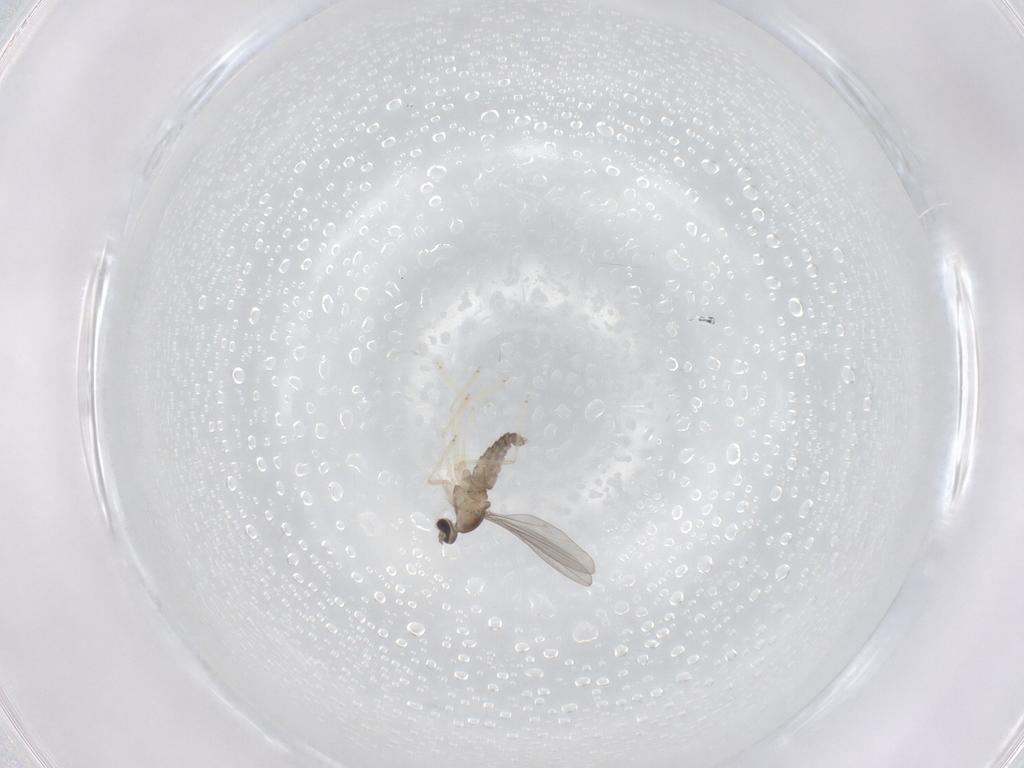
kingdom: Animalia
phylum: Arthropoda
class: Insecta
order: Diptera
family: Cecidomyiidae
